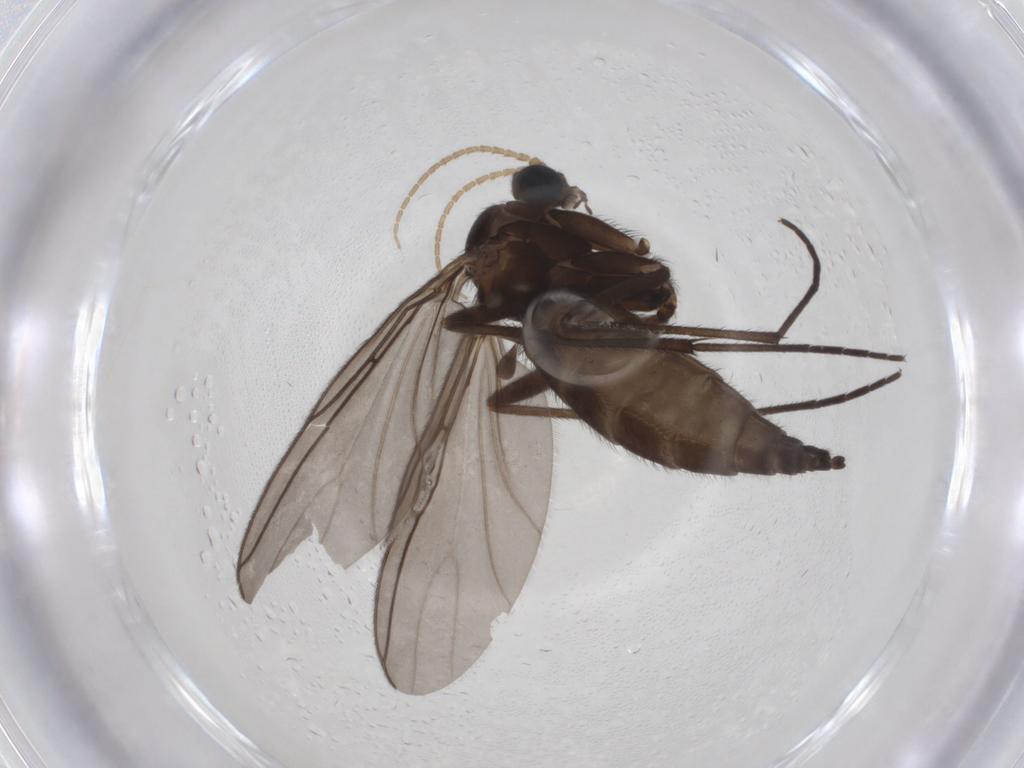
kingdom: Animalia
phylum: Arthropoda
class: Insecta
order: Diptera
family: Sciaridae
